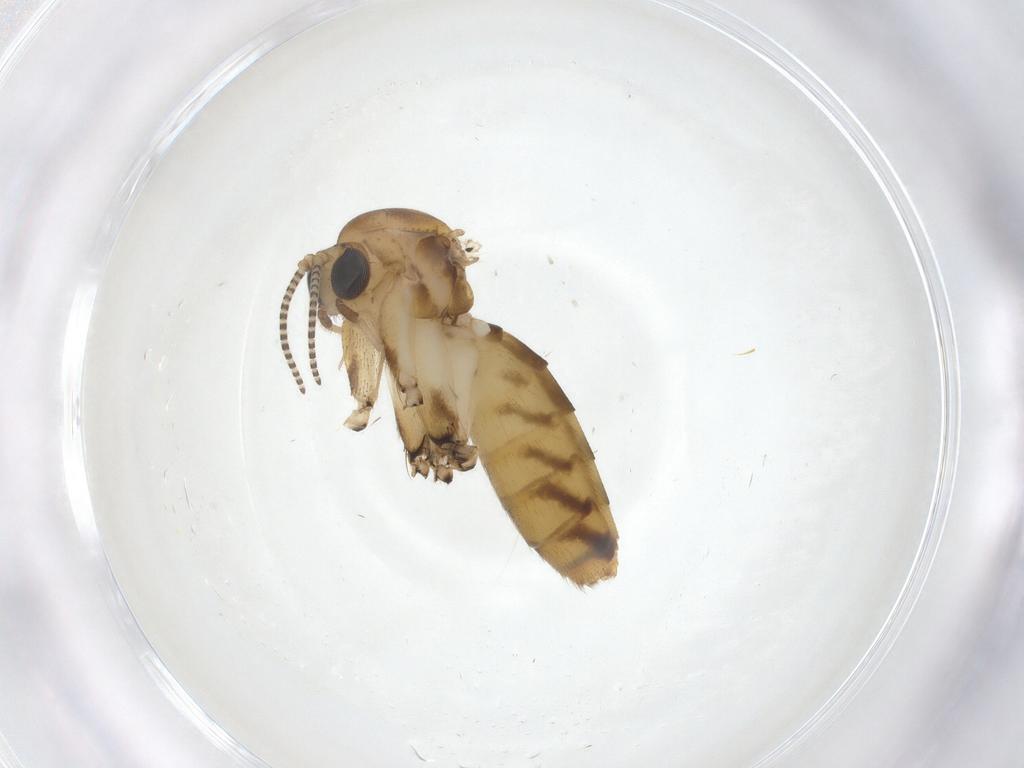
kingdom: Animalia
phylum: Arthropoda
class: Insecta
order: Diptera
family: Mycetophilidae
